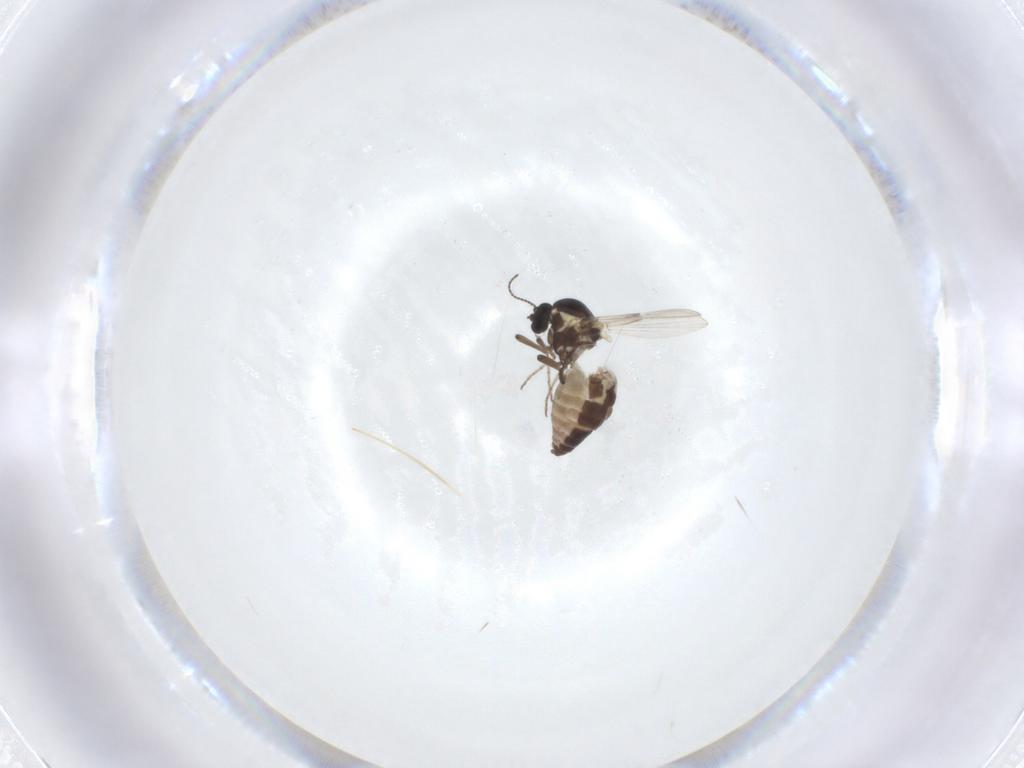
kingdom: Animalia
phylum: Arthropoda
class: Insecta
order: Diptera
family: Ceratopogonidae
